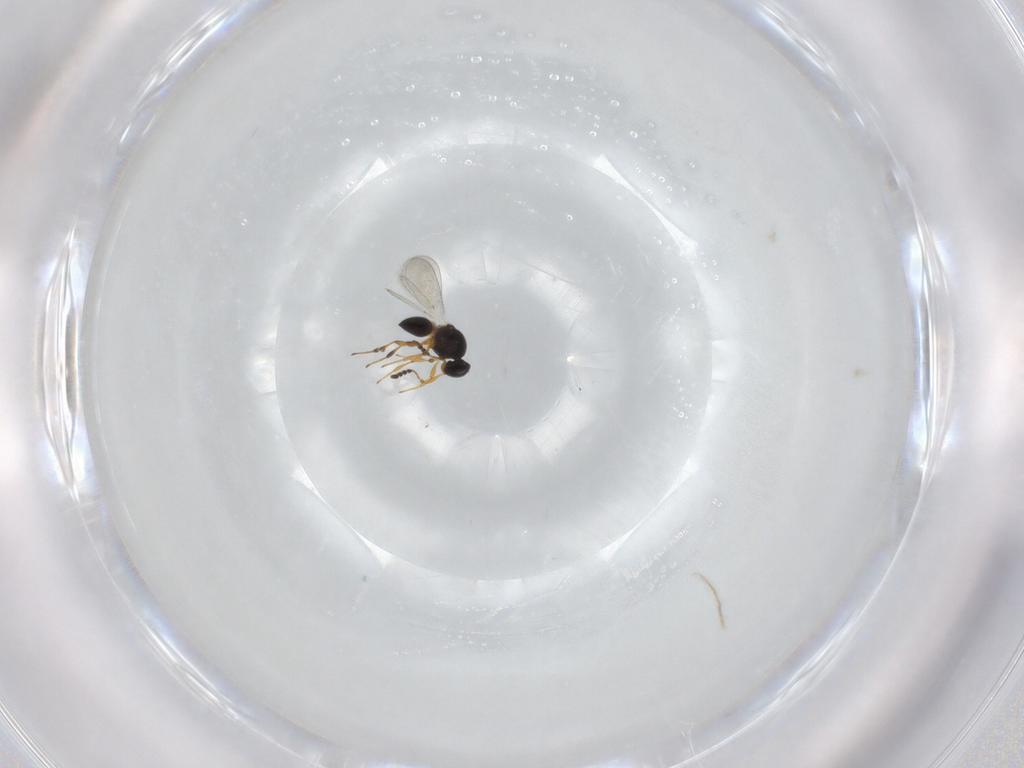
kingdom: Animalia
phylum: Arthropoda
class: Insecta
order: Hymenoptera
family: Platygastridae
